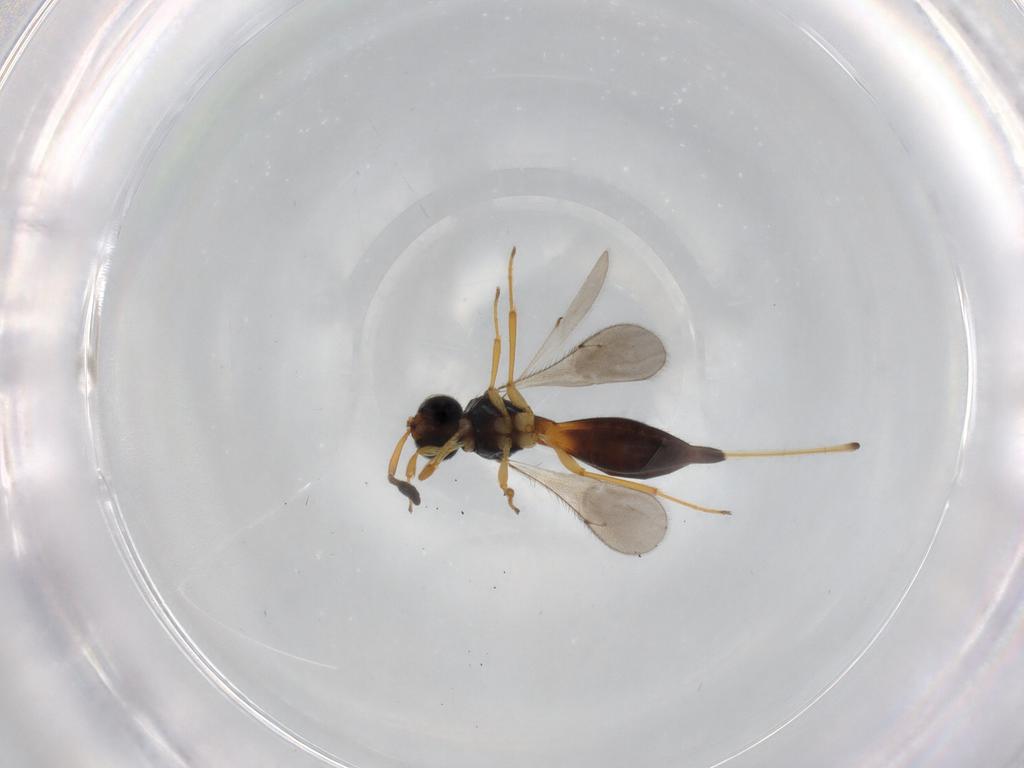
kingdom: Animalia
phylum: Arthropoda
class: Insecta
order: Hymenoptera
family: Scelionidae
